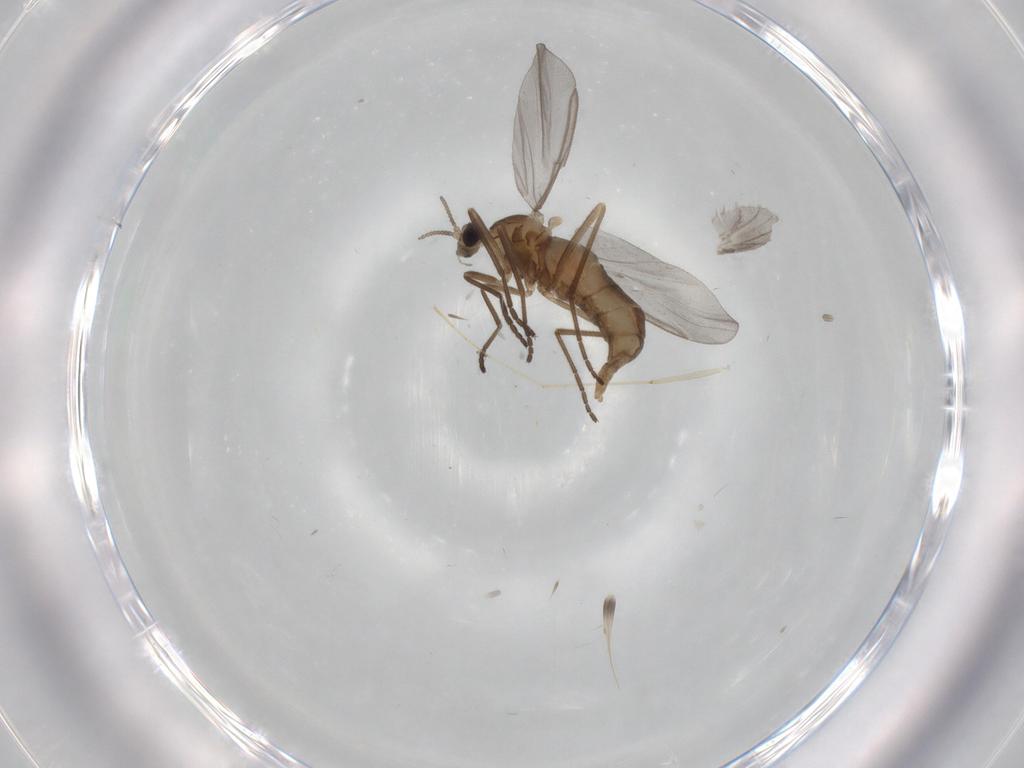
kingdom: Animalia
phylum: Arthropoda
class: Insecta
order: Diptera
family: Cecidomyiidae
